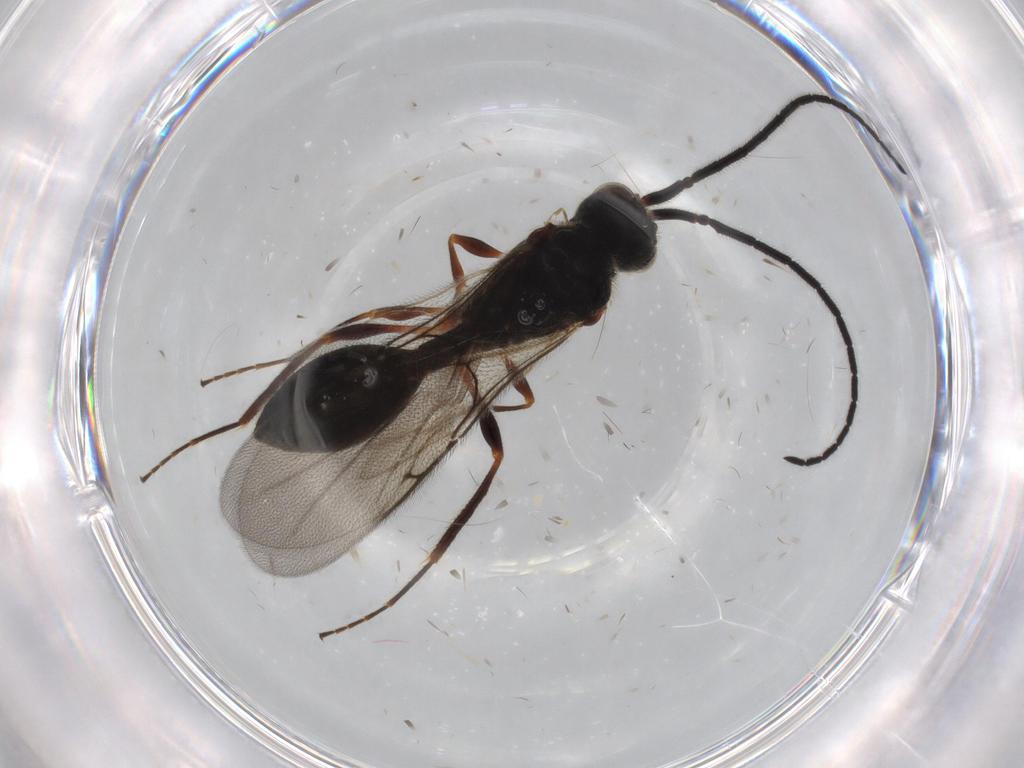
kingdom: Animalia
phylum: Arthropoda
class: Insecta
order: Hymenoptera
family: Diapriidae
